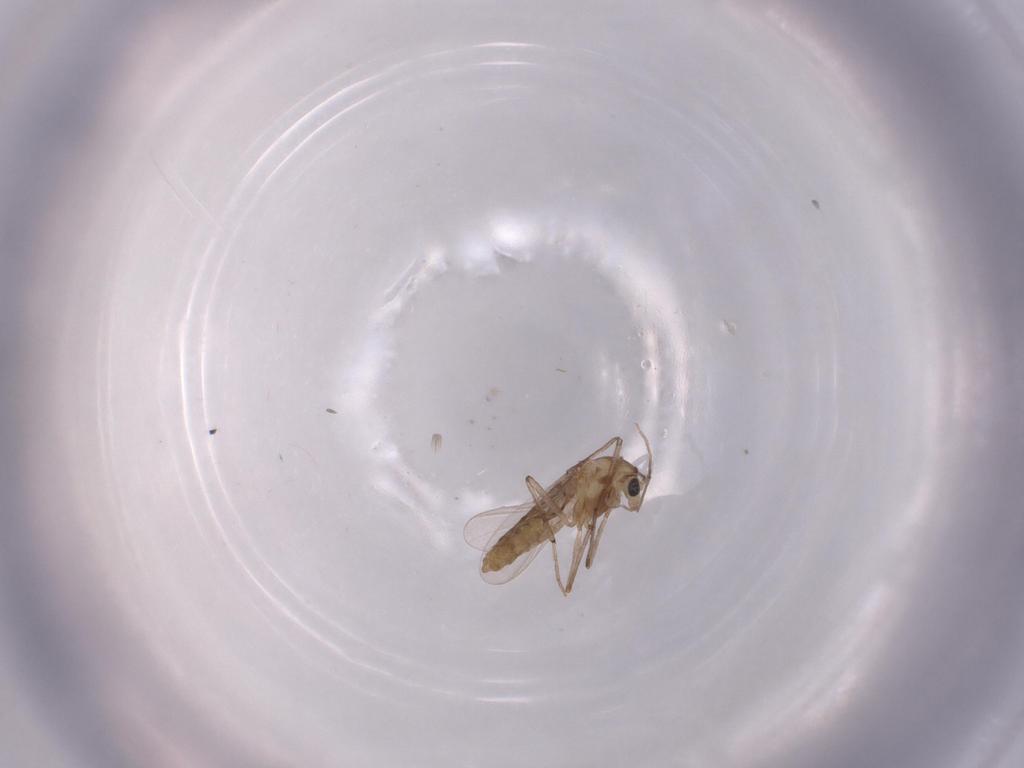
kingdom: Animalia
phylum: Arthropoda
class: Insecta
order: Diptera
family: Chironomidae
